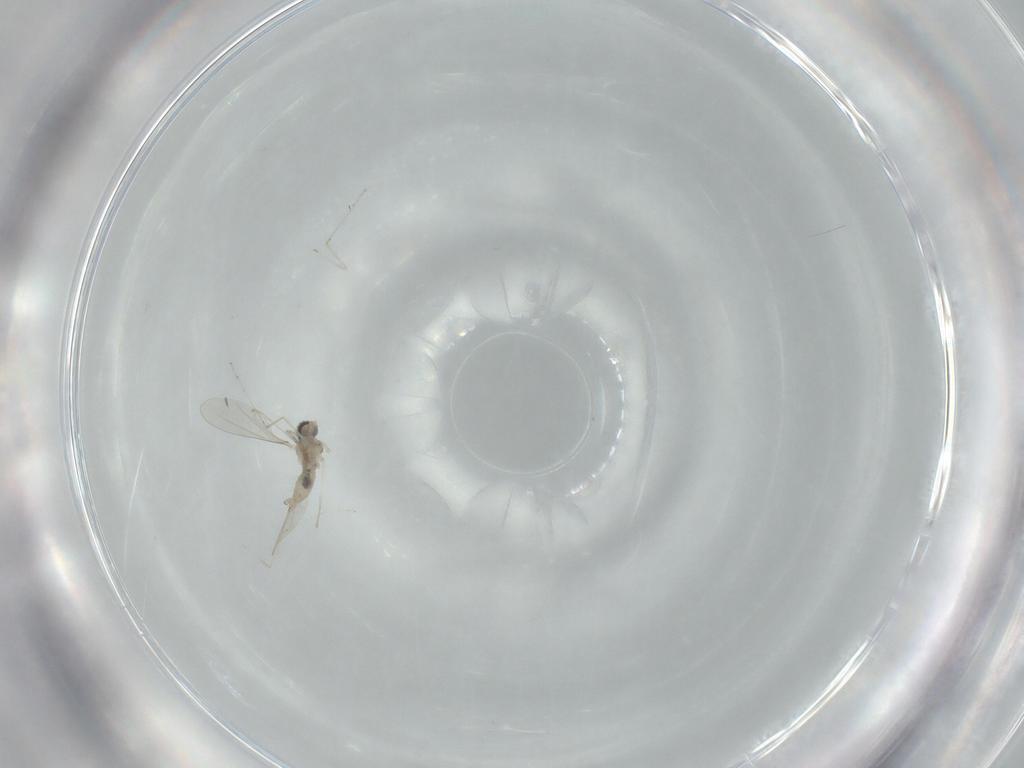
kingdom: Animalia
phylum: Arthropoda
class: Insecta
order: Diptera
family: Cecidomyiidae
